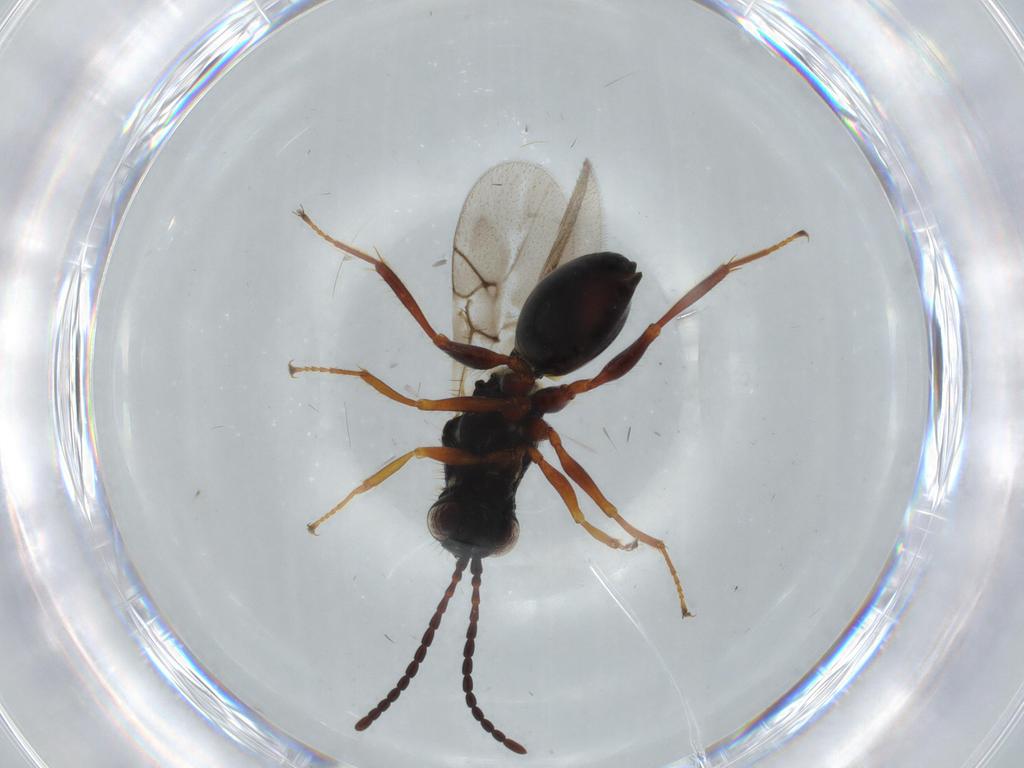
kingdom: Animalia
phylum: Arthropoda
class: Insecta
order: Hymenoptera
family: Figitidae
